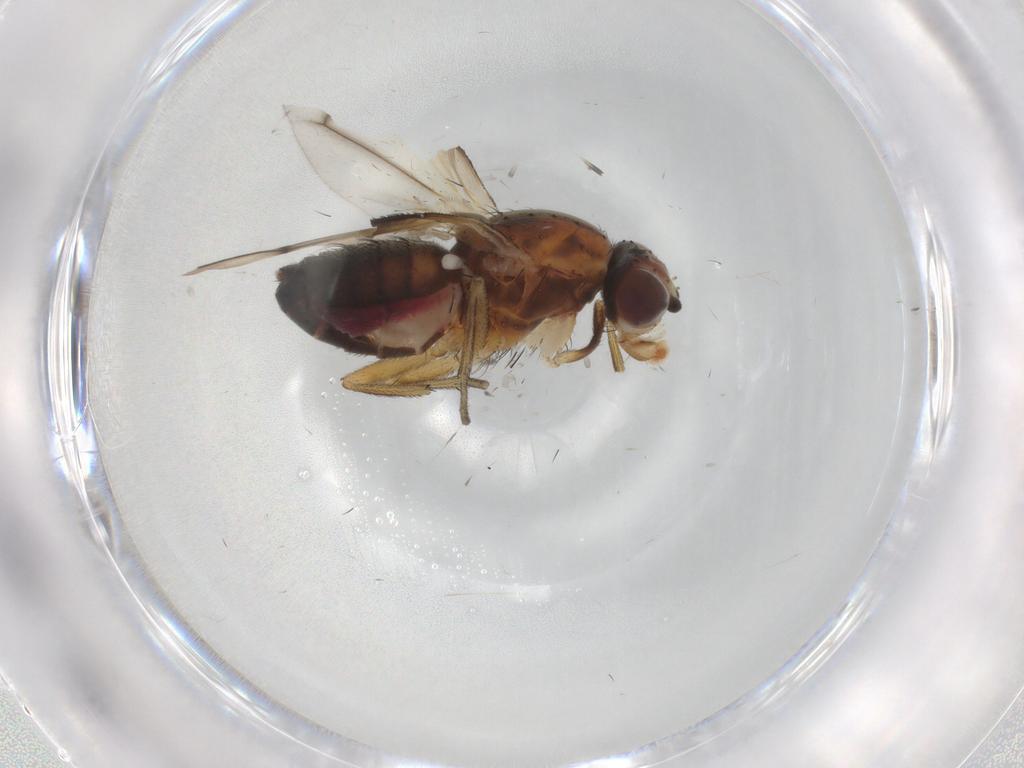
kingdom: Animalia
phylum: Arthropoda
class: Insecta
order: Diptera
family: Heleomyzidae
